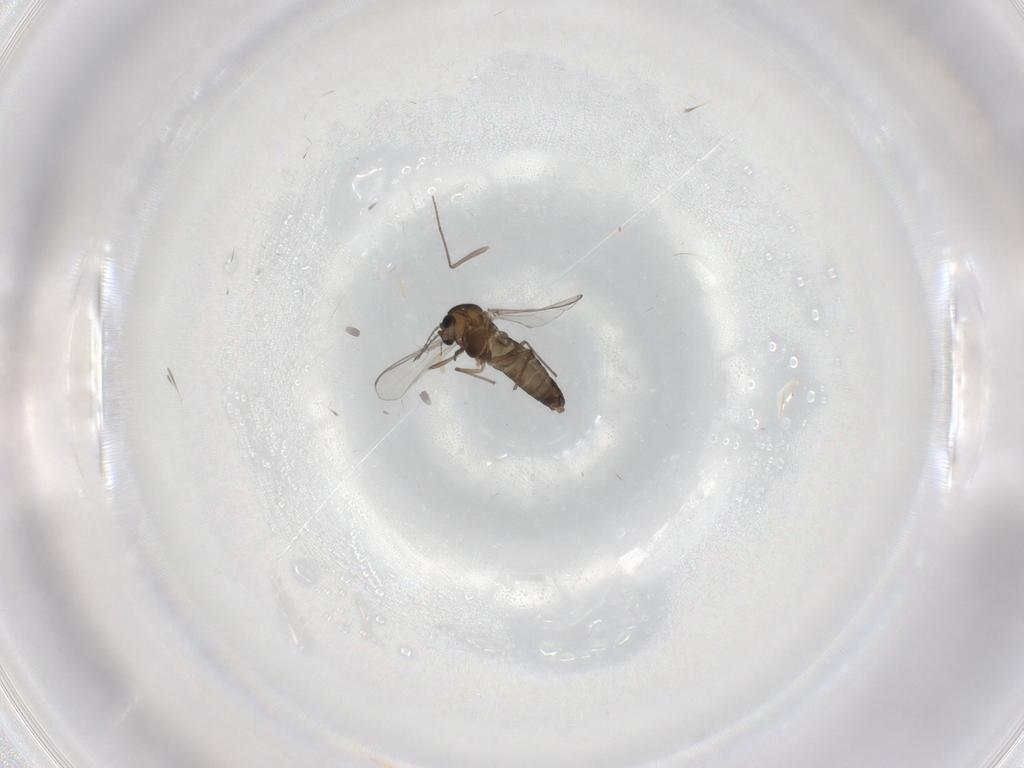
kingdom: Animalia
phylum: Arthropoda
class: Insecta
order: Diptera
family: Chironomidae
